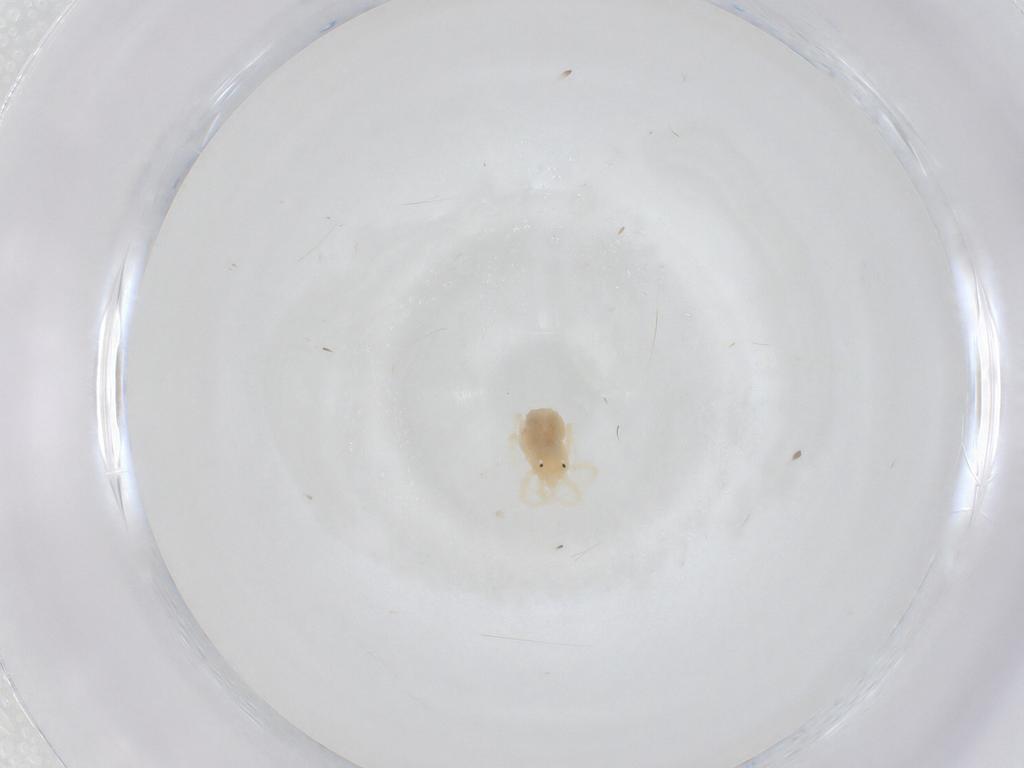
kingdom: Animalia
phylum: Arthropoda
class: Arachnida
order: Trombidiformes
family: Anystidae
